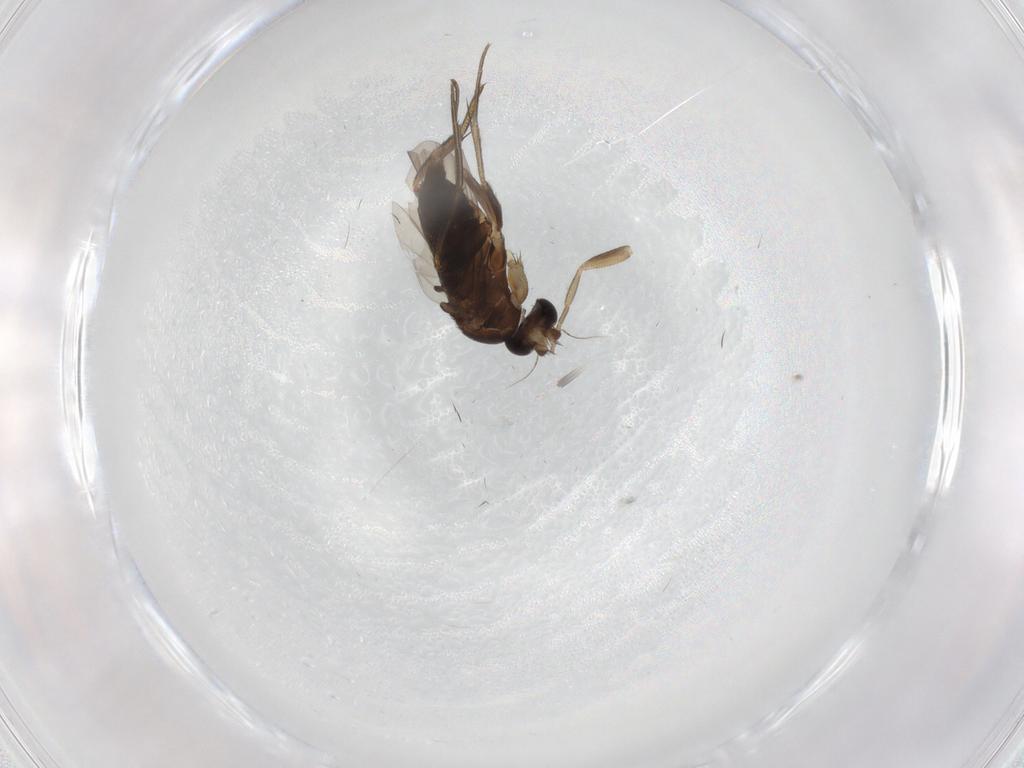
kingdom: Animalia
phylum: Arthropoda
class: Insecta
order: Diptera
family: Phoridae
